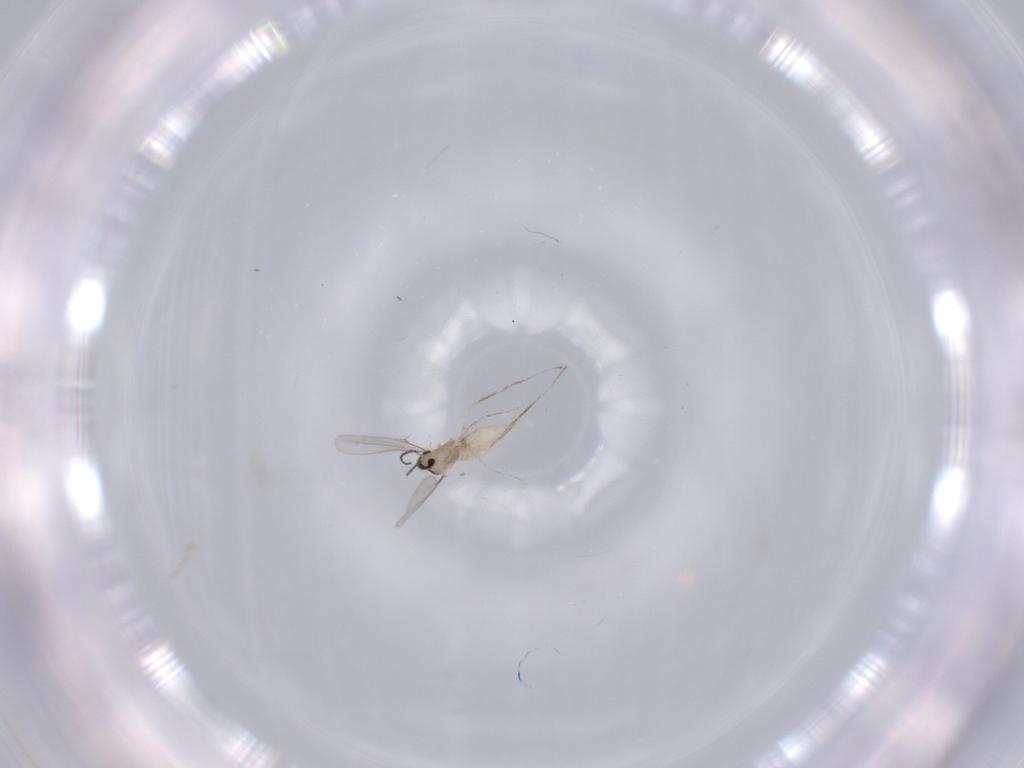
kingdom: Animalia
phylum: Arthropoda
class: Insecta
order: Diptera
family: Cecidomyiidae
